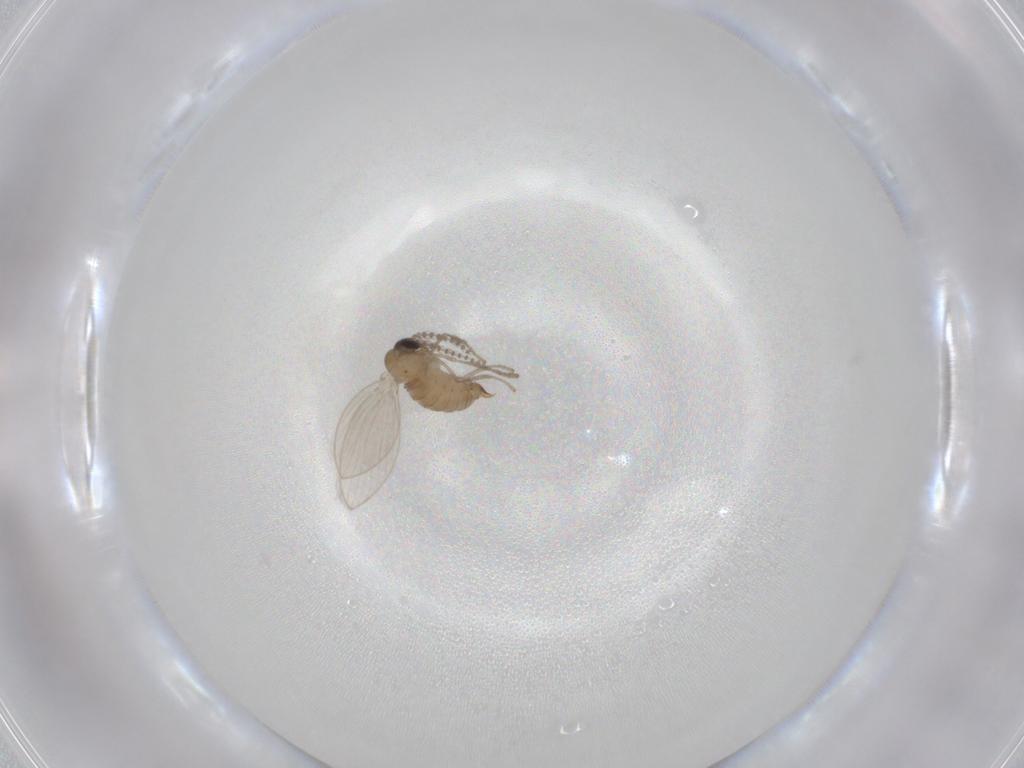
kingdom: Animalia
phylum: Arthropoda
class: Insecta
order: Diptera
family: Psychodidae
